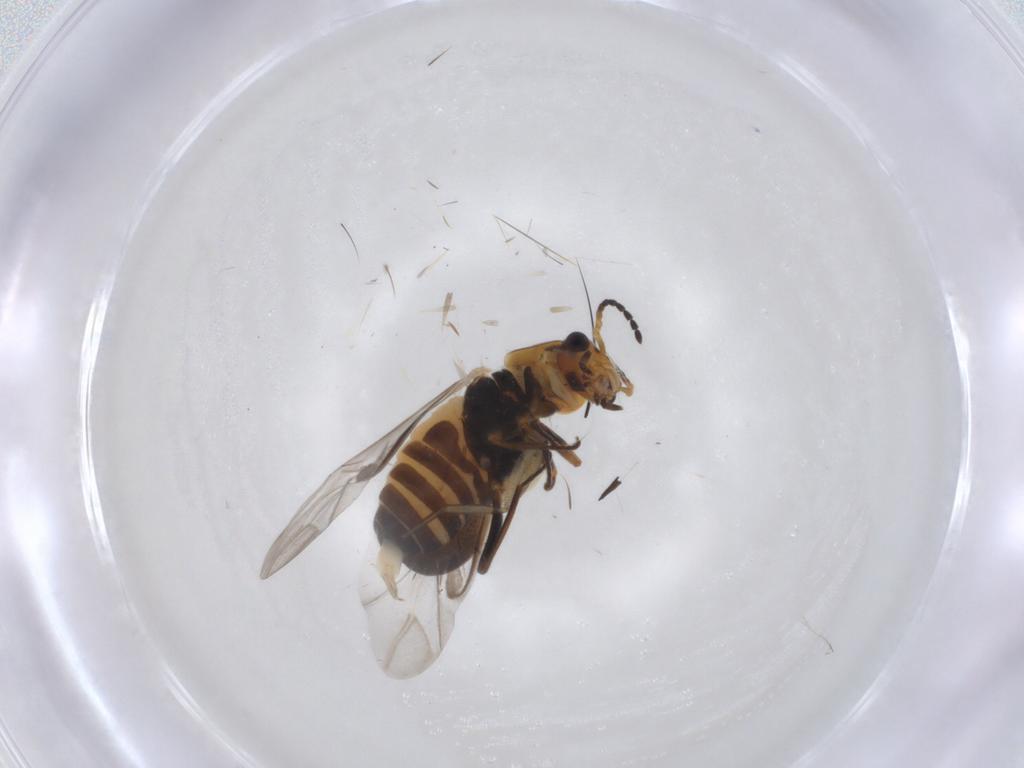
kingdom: Animalia
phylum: Arthropoda
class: Insecta
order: Coleoptera
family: Melyridae
